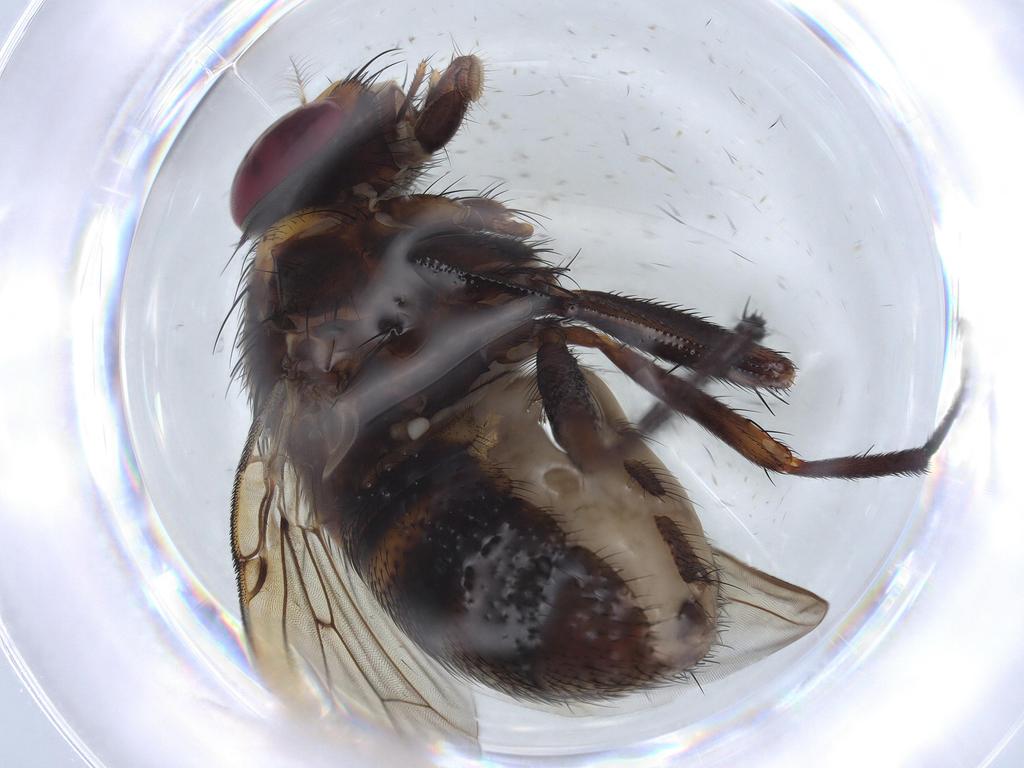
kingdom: Animalia
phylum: Arthropoda
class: Insecta
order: Diptera
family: Muscidae
